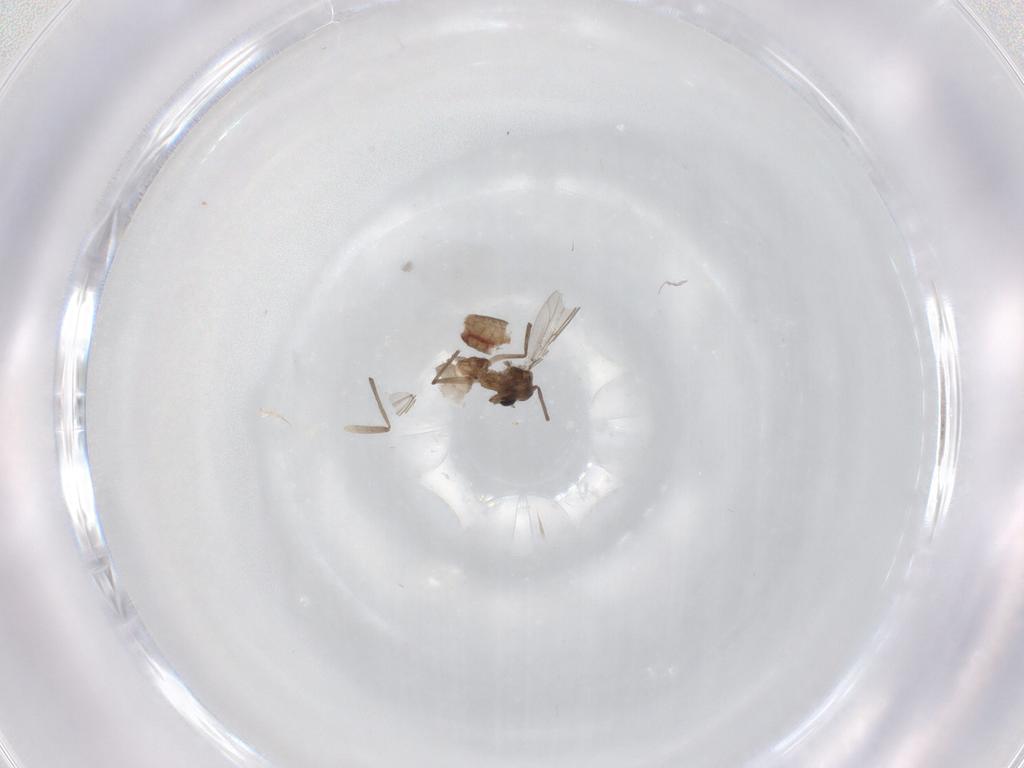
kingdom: Animalia
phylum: Arthropoda
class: Insecta
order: Diptera
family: Chironomidae
